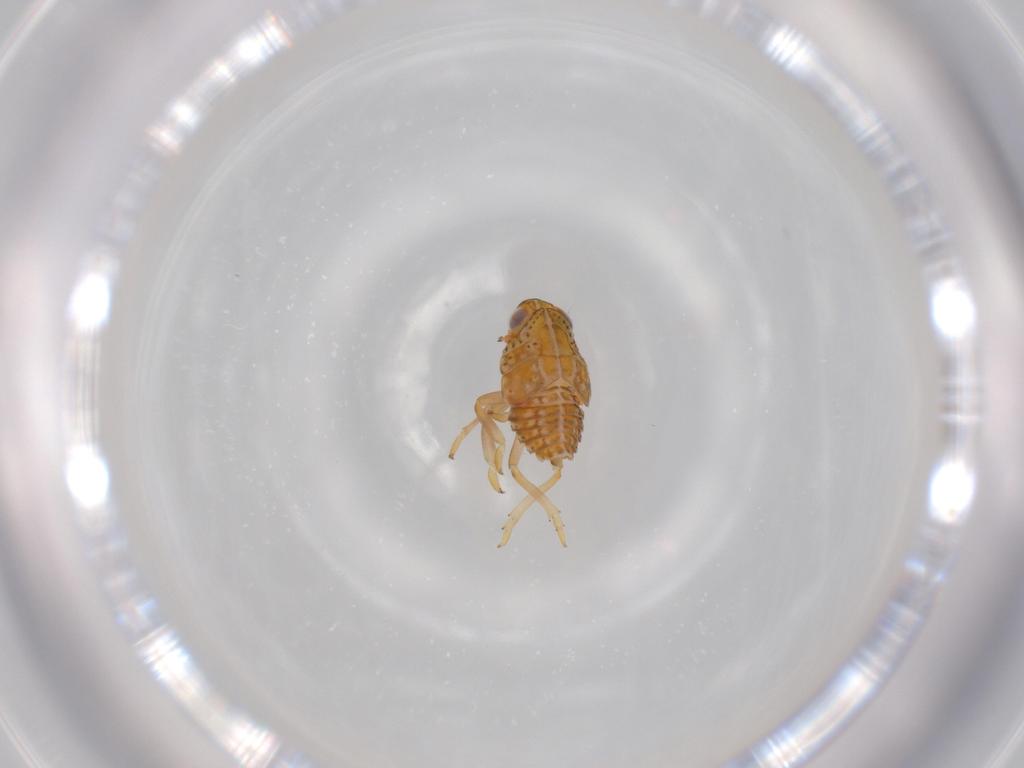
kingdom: Animalia
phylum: Arthropoda
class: Insecta
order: Hemiptera
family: Issidae
